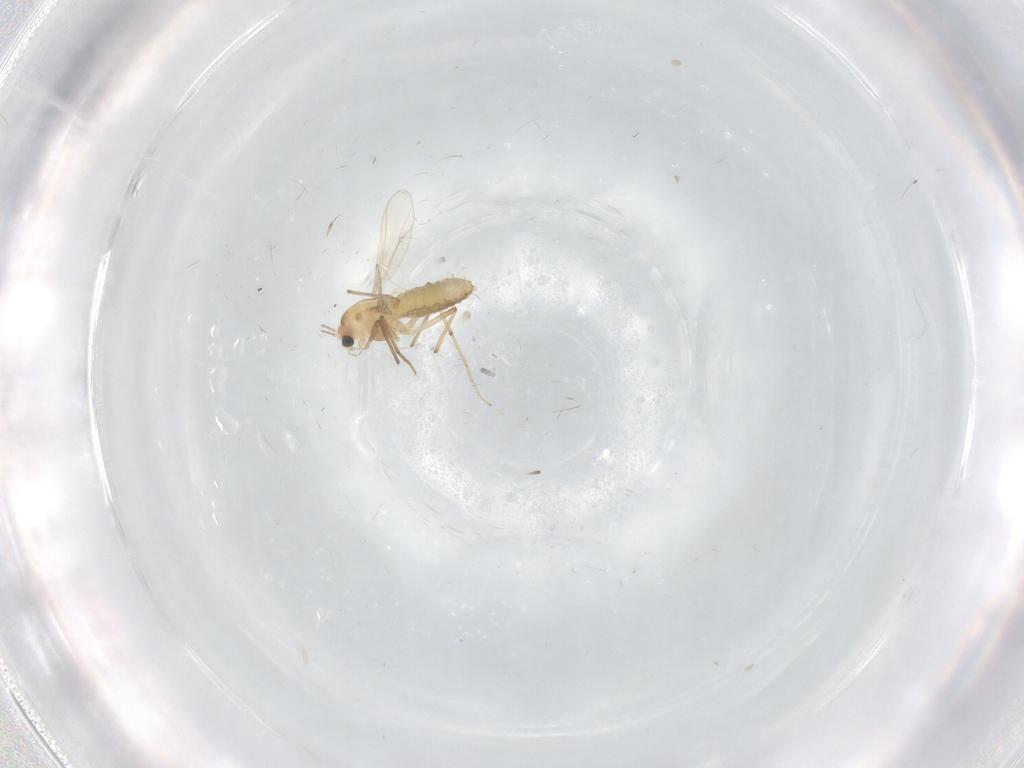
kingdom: Animalia
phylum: Arthropoda
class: Insecta
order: Diptera
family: Chironomidae
